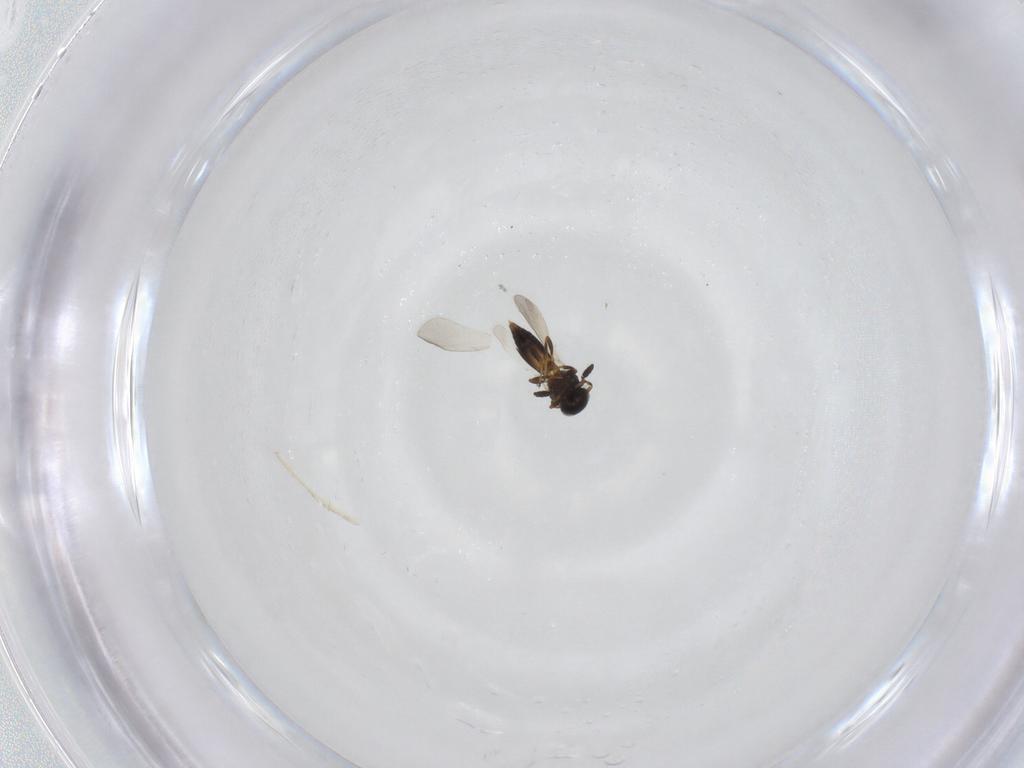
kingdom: Animalia
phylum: Arthropoda
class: Insecta
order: Hymenoptera
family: Platygastridae
